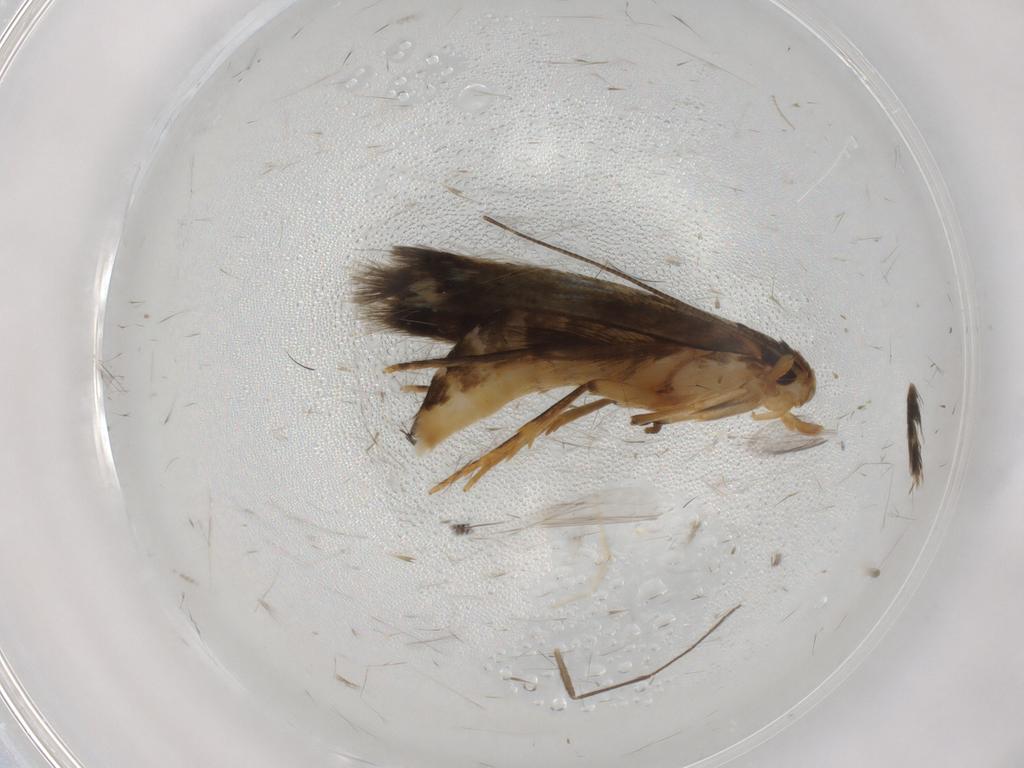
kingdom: Animalia
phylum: Arthropoda
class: Insecta
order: Lepidoptera
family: Tineidae
